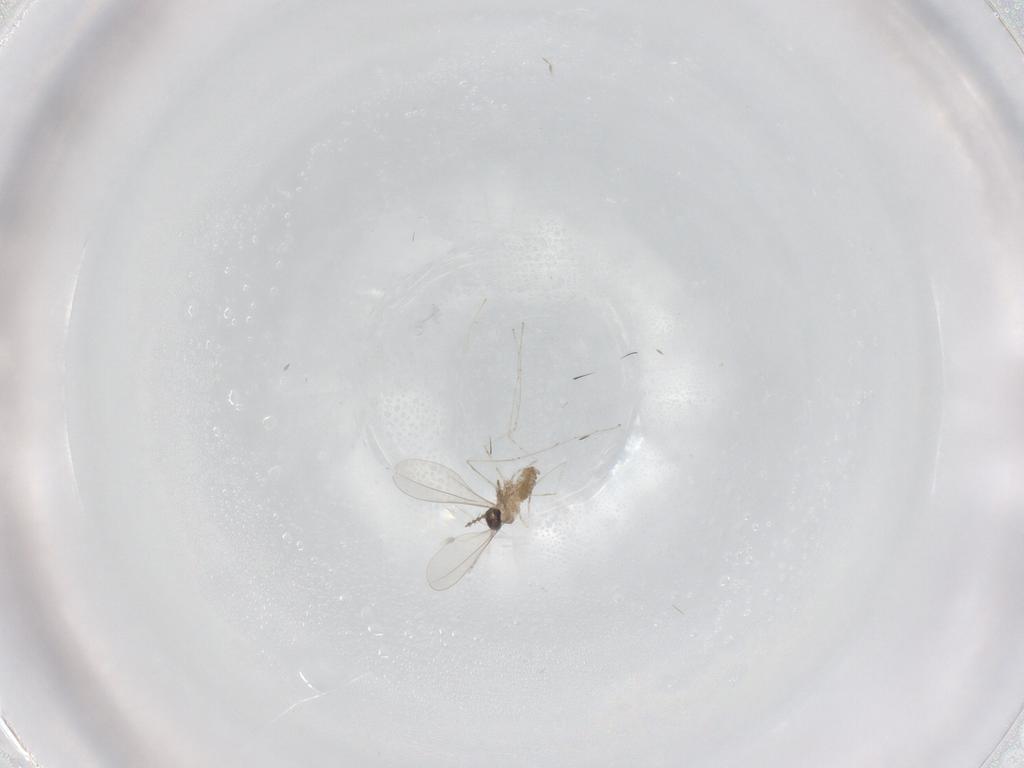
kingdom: Animalia
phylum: Arthropoda
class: Insecta
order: Diptera
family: Cecidomyiidae
